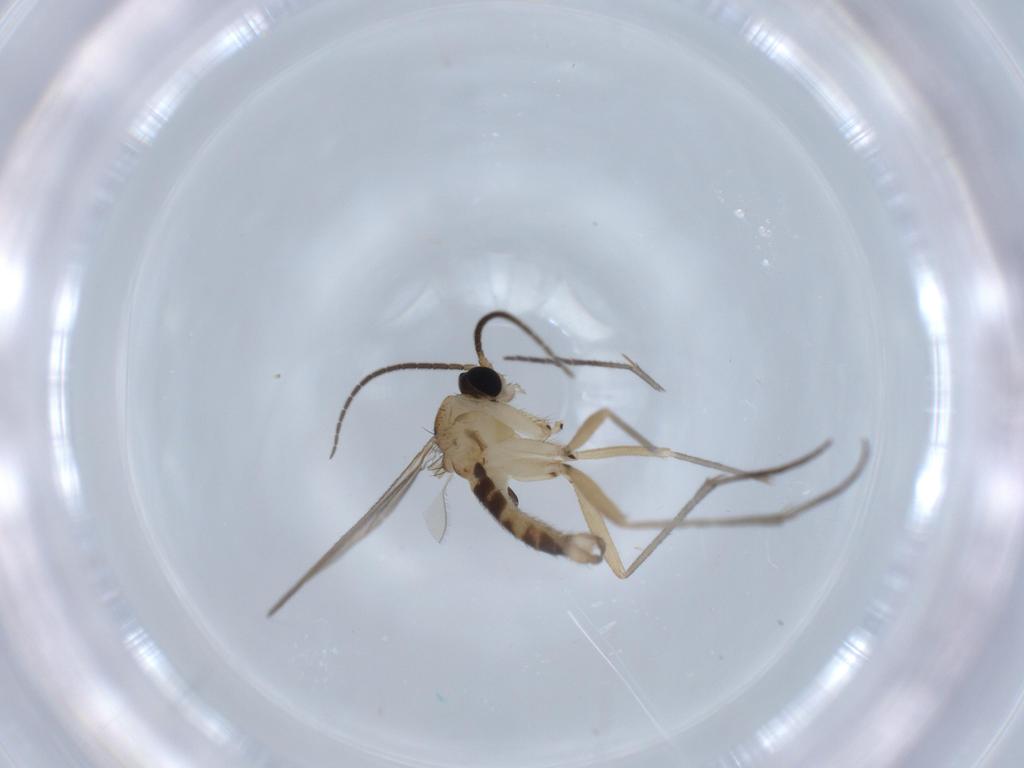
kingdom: Animalia
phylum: Arthropoda
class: Insecta
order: Diptera
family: Sciaridae
